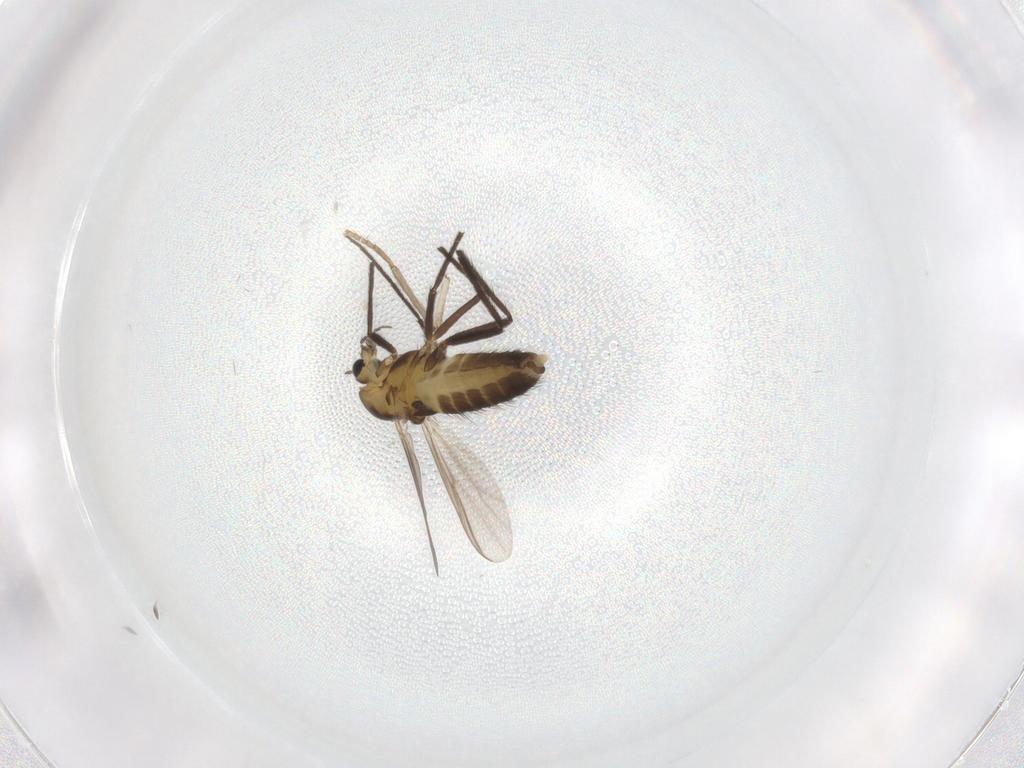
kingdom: Animalia
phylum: Arthropoda
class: Insecta
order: Diptera
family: Chironomidae
